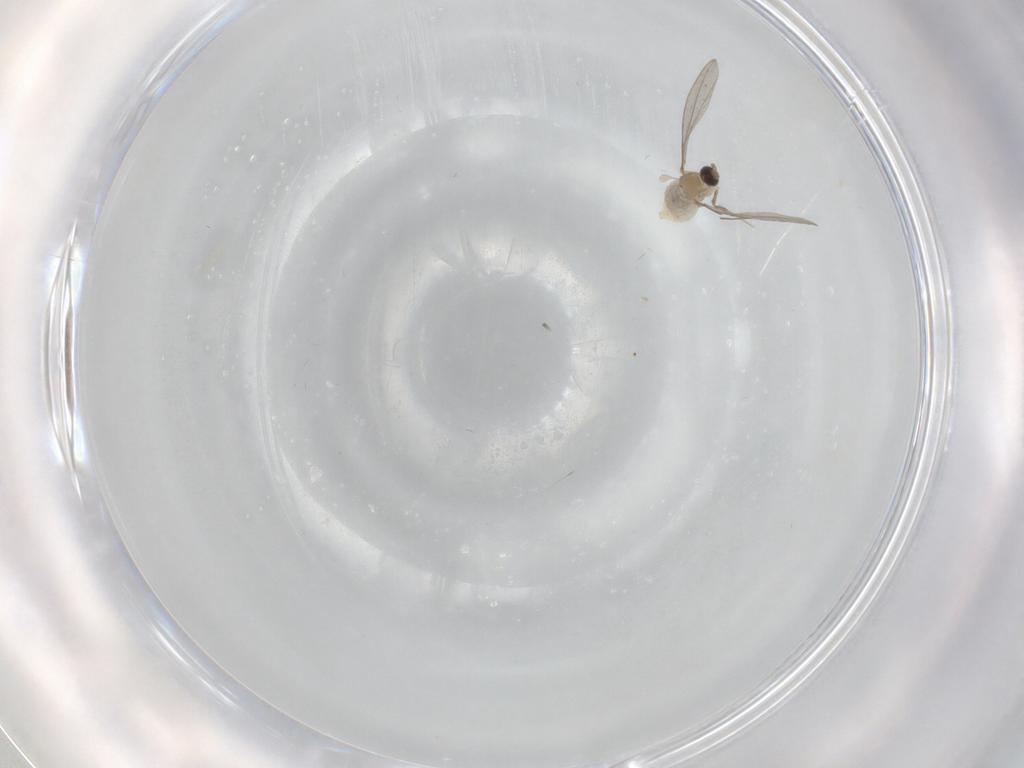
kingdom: Animalia
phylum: Arthropoda
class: Insecta
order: Diptera
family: Cecidomyiidae
